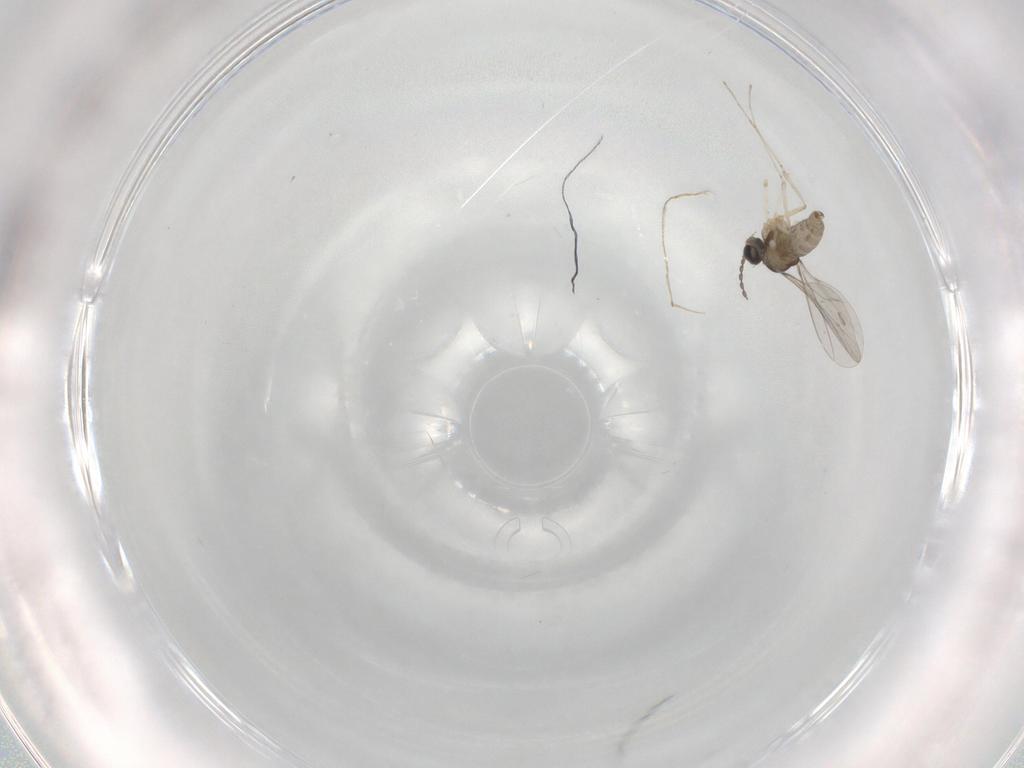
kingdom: Animalia
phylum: Arthropoda
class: Insecta
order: Diptera
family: Cecidomyiidae
